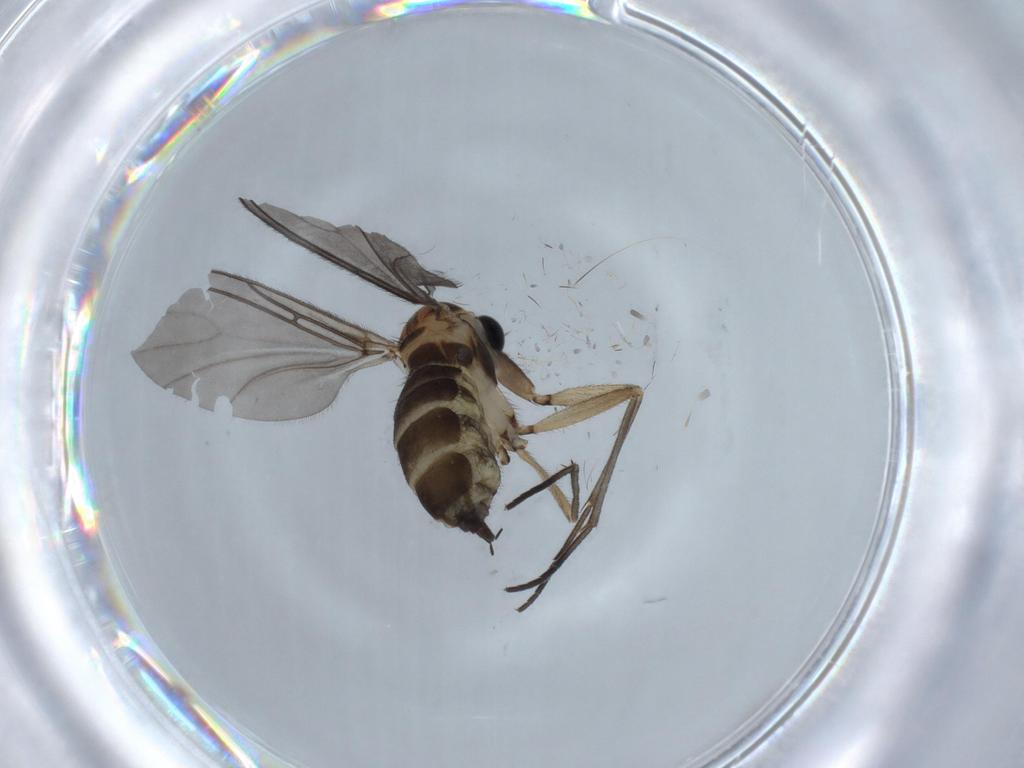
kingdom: Animalia
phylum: Arthropoda
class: Insecta
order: Diptera
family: Sciaridae
